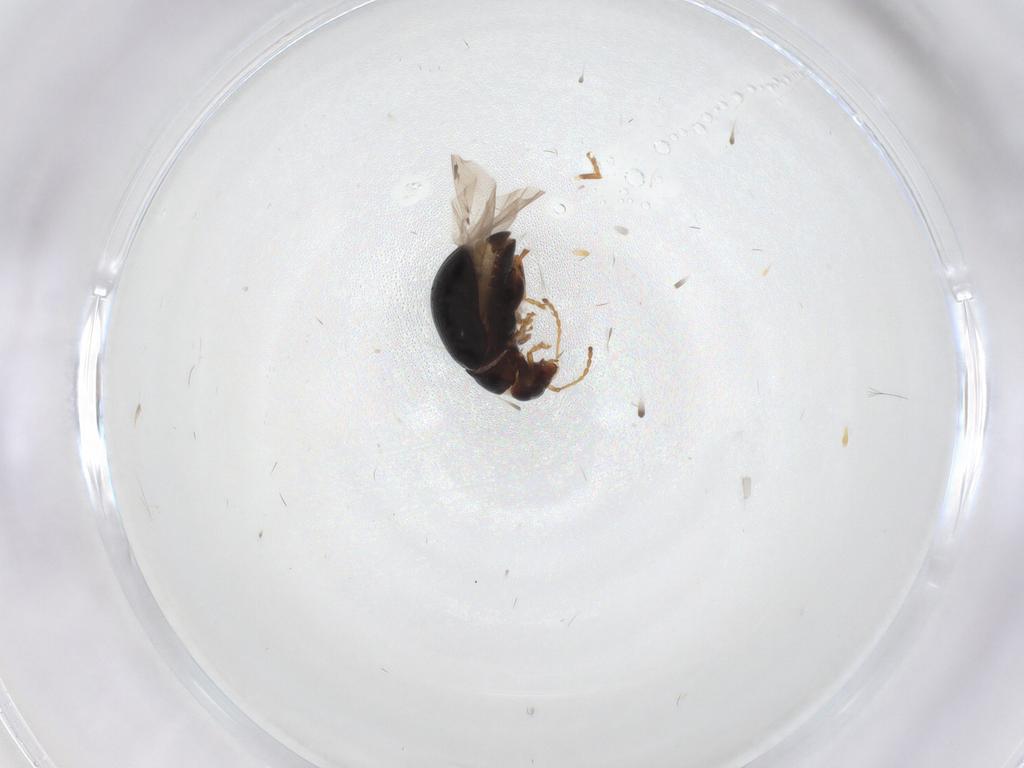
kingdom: Animalia
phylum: Arthropoda
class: Insecta
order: Coleoptera
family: Chrysomelidae
